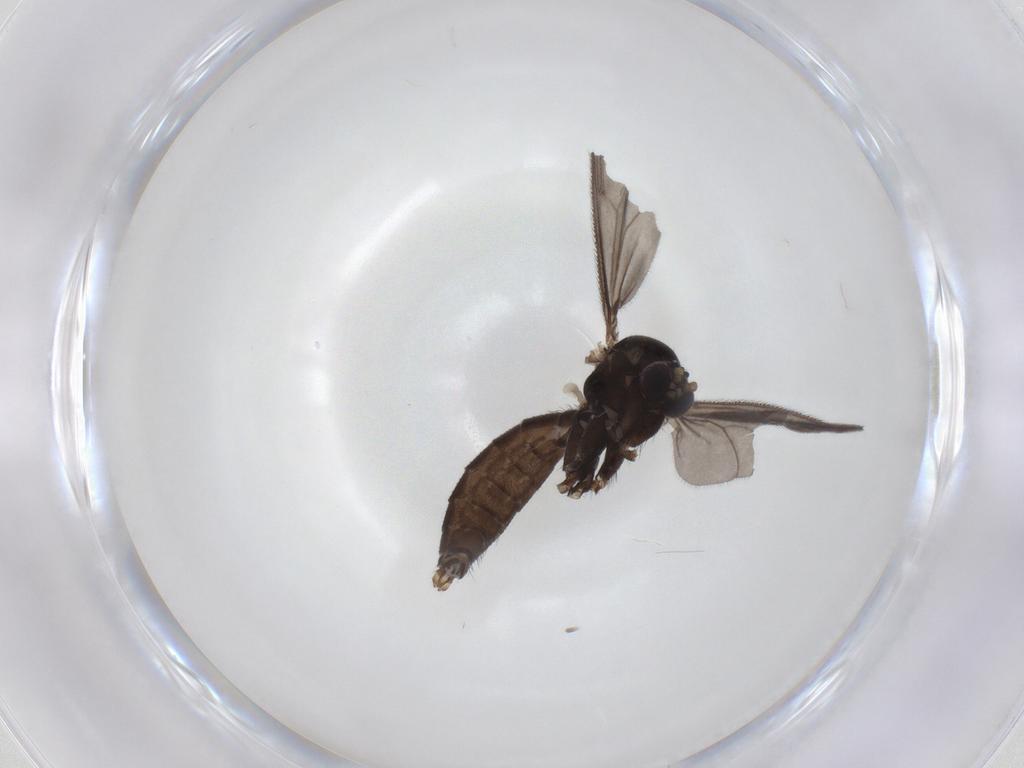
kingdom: Animalia
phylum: Arthropoda
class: Insecta
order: Diptera
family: Mycetophilidae
